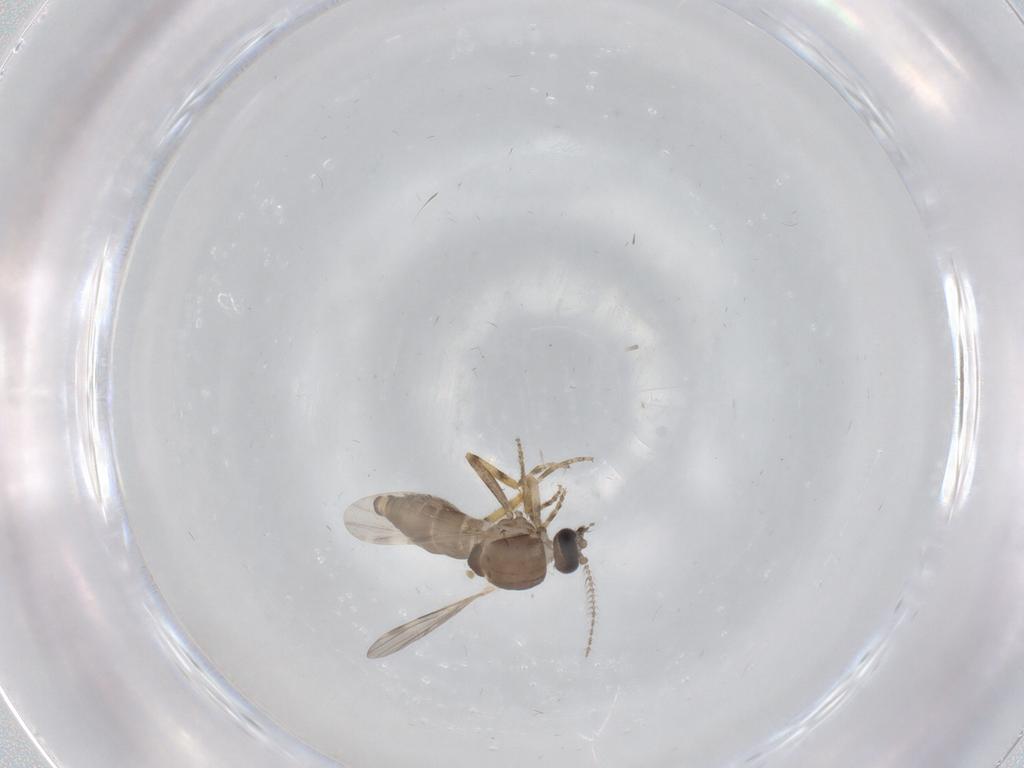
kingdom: Animalia
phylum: Arthropoda
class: Insecta
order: Diptera
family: Ceratopogonidae
